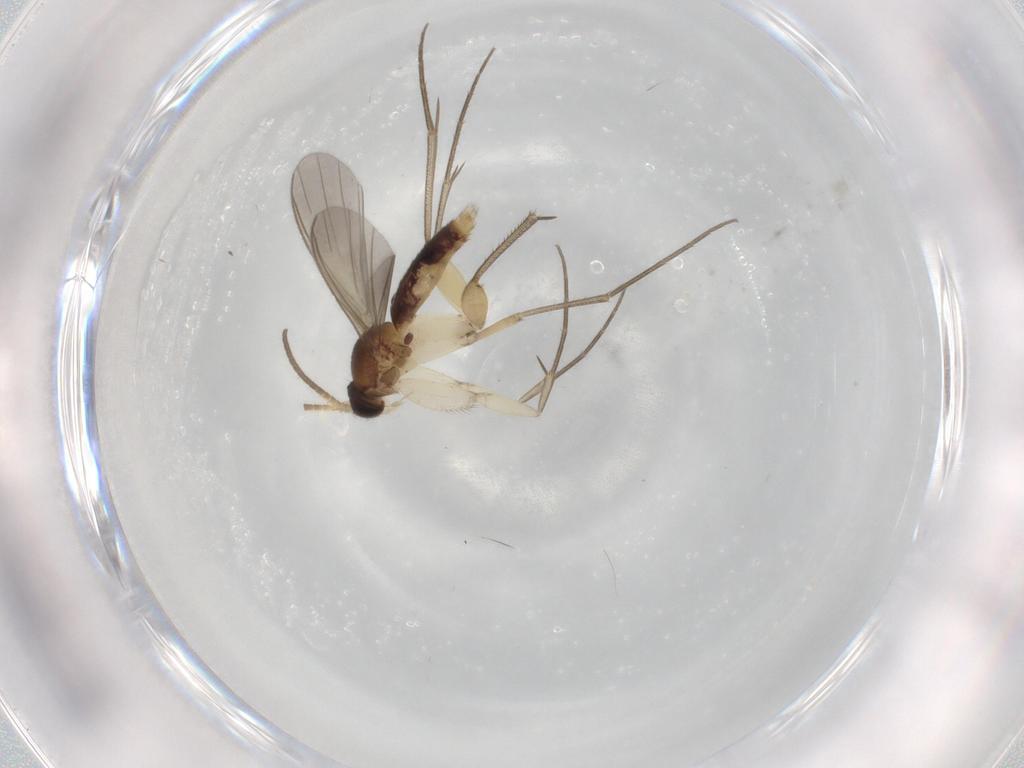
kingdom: Animalia
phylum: Arthropoda
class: Insecta
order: Diptera
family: Mycetophilidae
